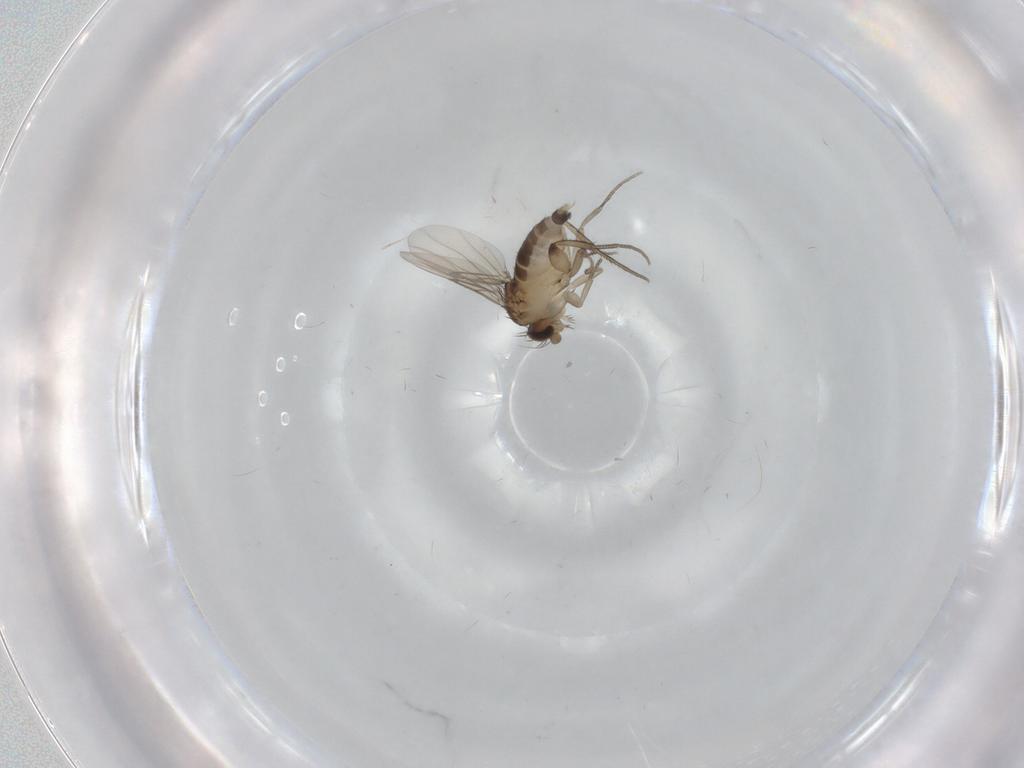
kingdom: Animalia
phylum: Arthropoda
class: Insecta
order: Diptera
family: Phoridae
